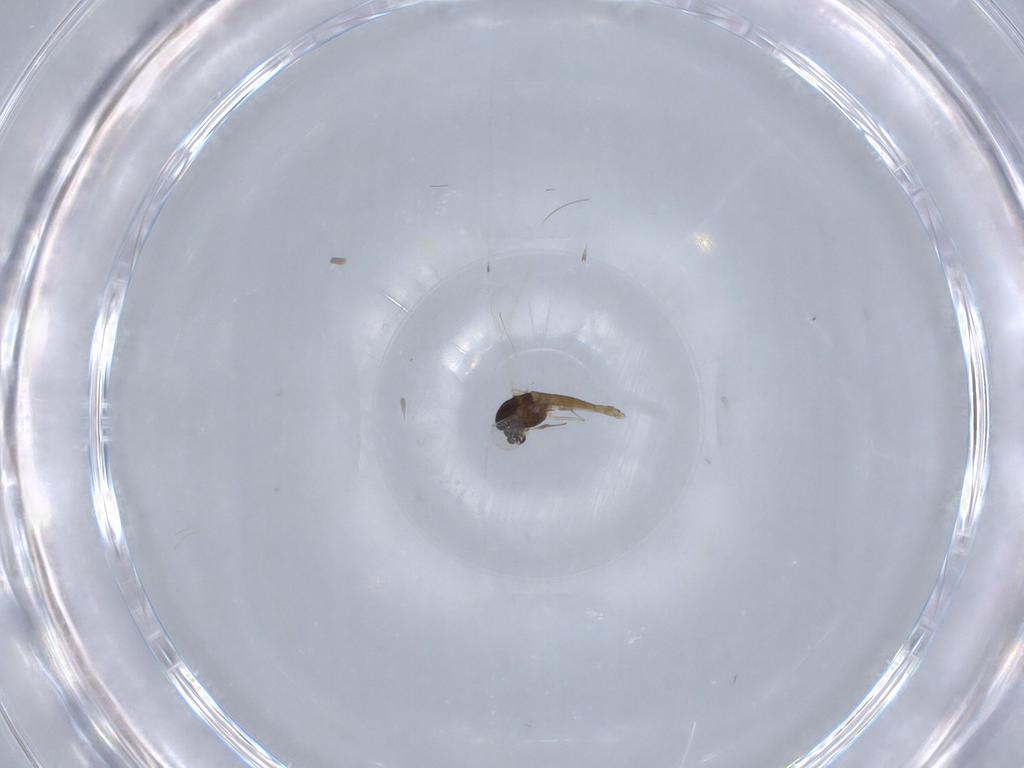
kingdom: Animalia
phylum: Arthropoda
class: Insecta
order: Diptera
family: Chironomidae
